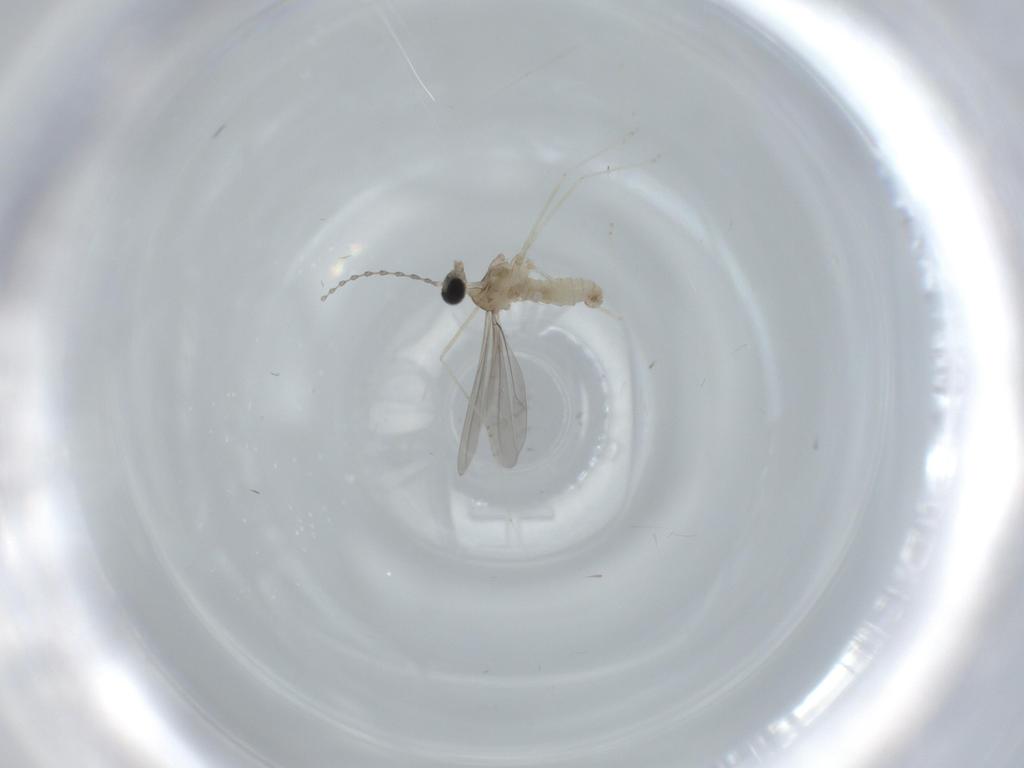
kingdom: Animalia
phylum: Arthropoda
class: Insecta
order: Diptera
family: Cecidomyiidae
